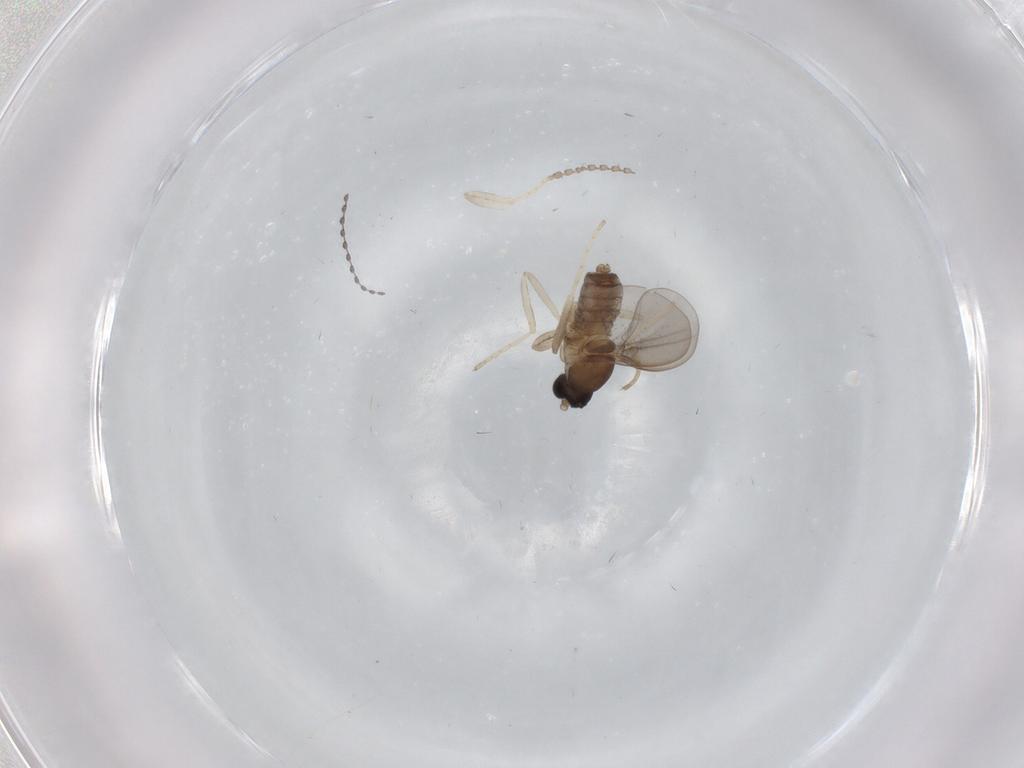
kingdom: Animalia
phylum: Arthropoda
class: Insecta
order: Diptera
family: Cecidomyiidae
